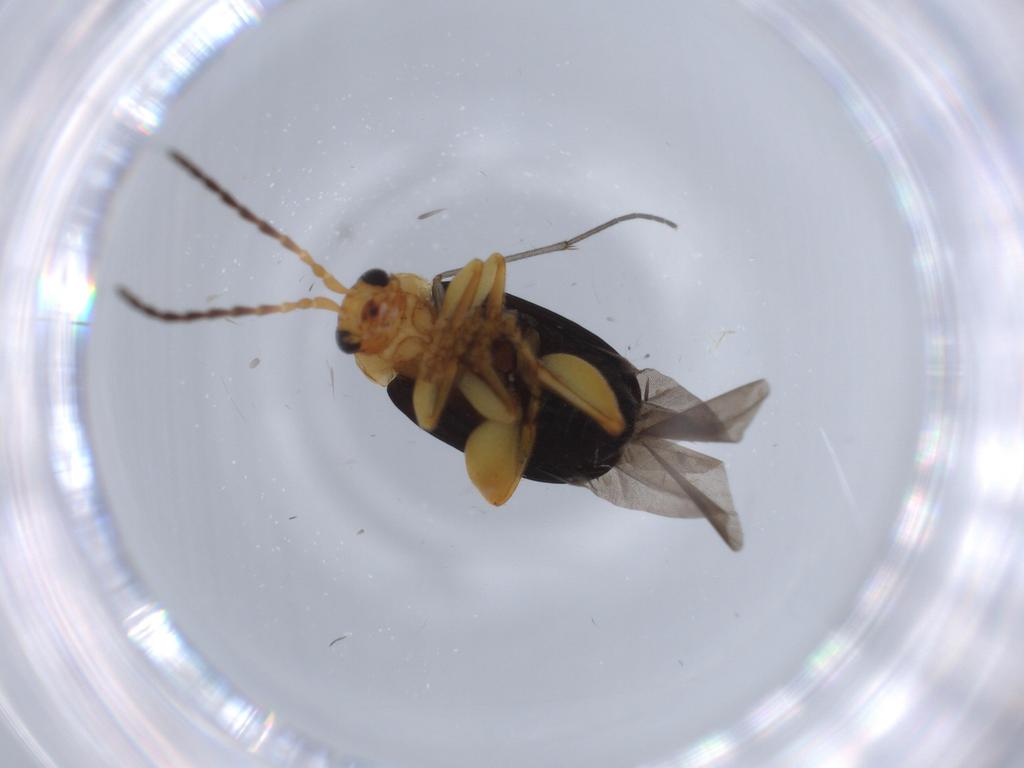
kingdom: Animalia
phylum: Arthropoda
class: Insecta
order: Coleoptera
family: Chrysomelidae
